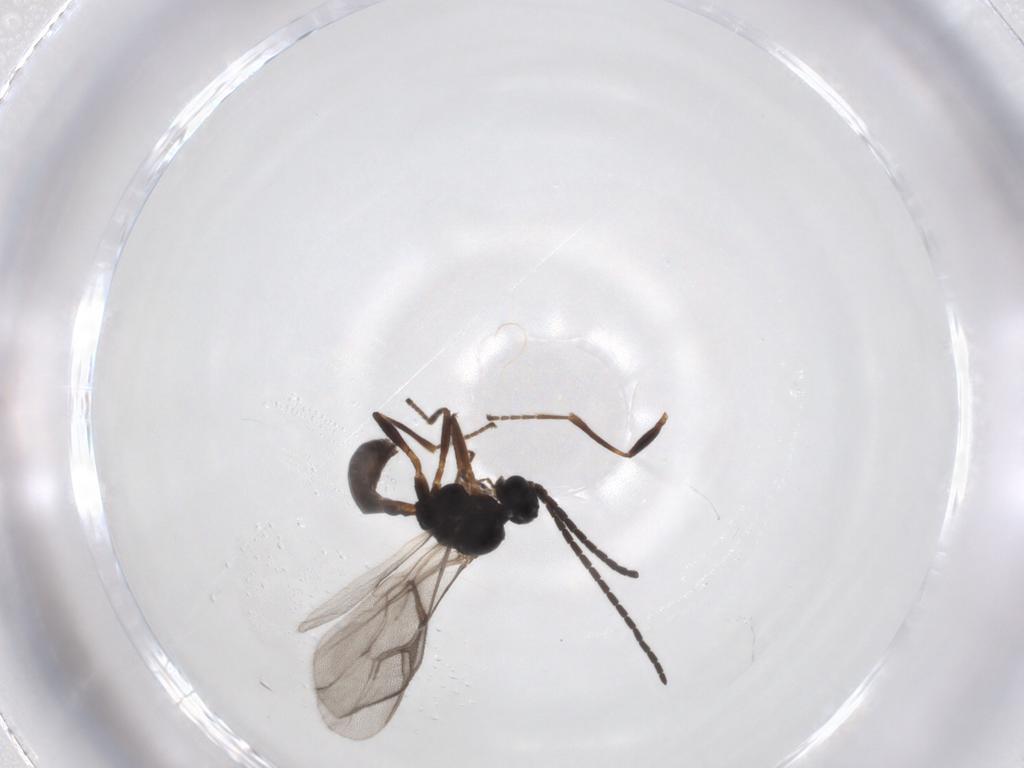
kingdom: Animalia
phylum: Arthropoda
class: Insecta
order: Hymenoptera
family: Braconidae
